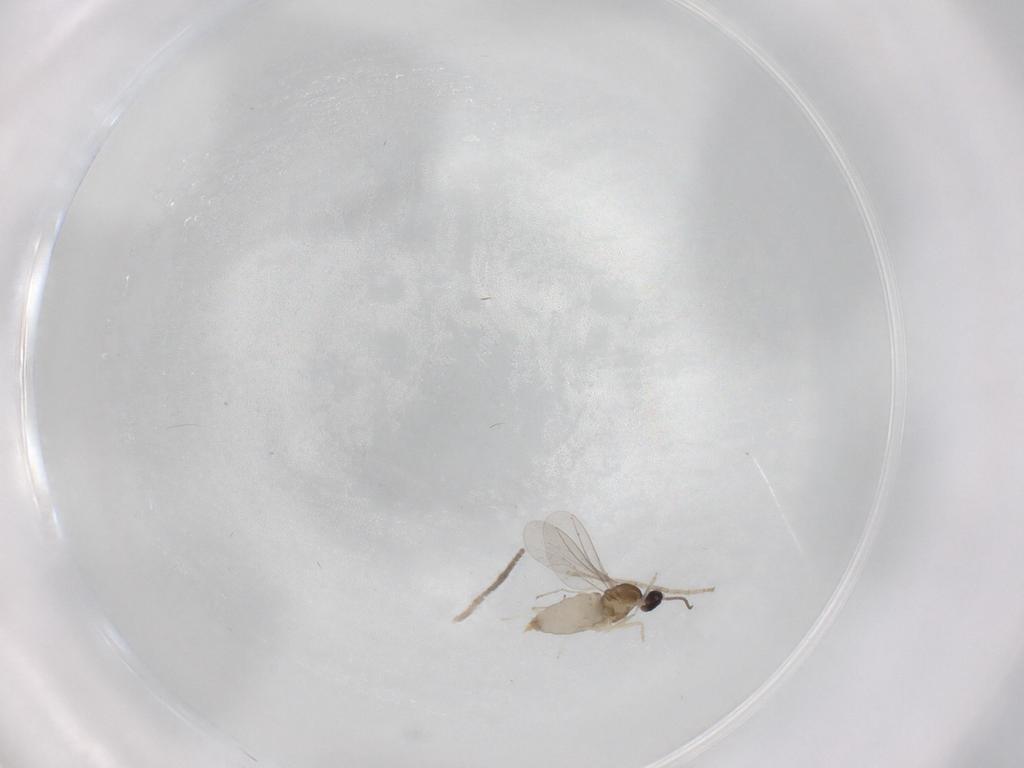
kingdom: Animalia
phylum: Arthropoda
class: Insecta
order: Diptera
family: Cecidomyiidae
